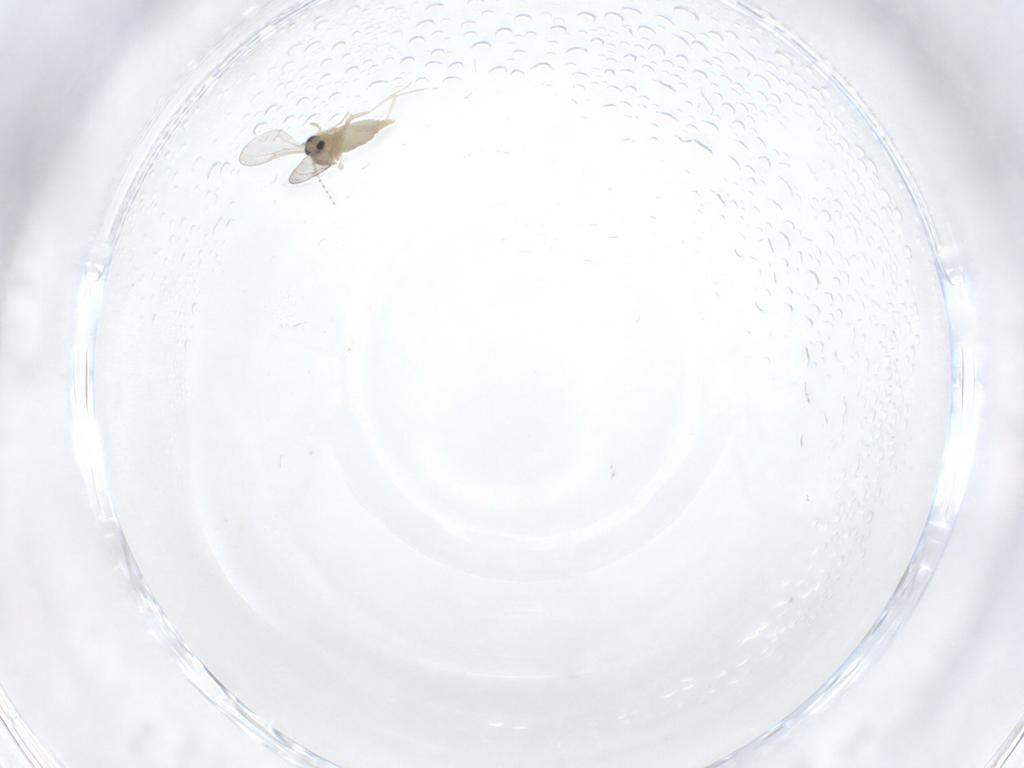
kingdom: Animalia
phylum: Arthropoda
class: Insecta
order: Diptera
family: Cecidomyiidae
